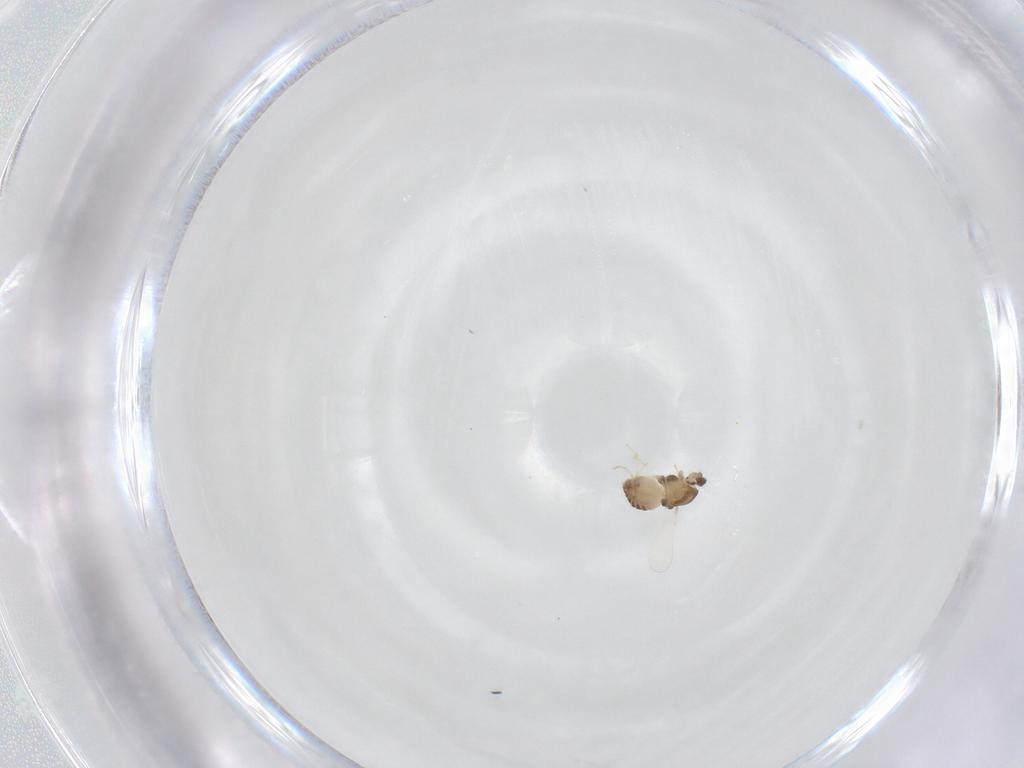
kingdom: Animalia
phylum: Arthropoda
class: Insecta
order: Diptera
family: Chironomidae
